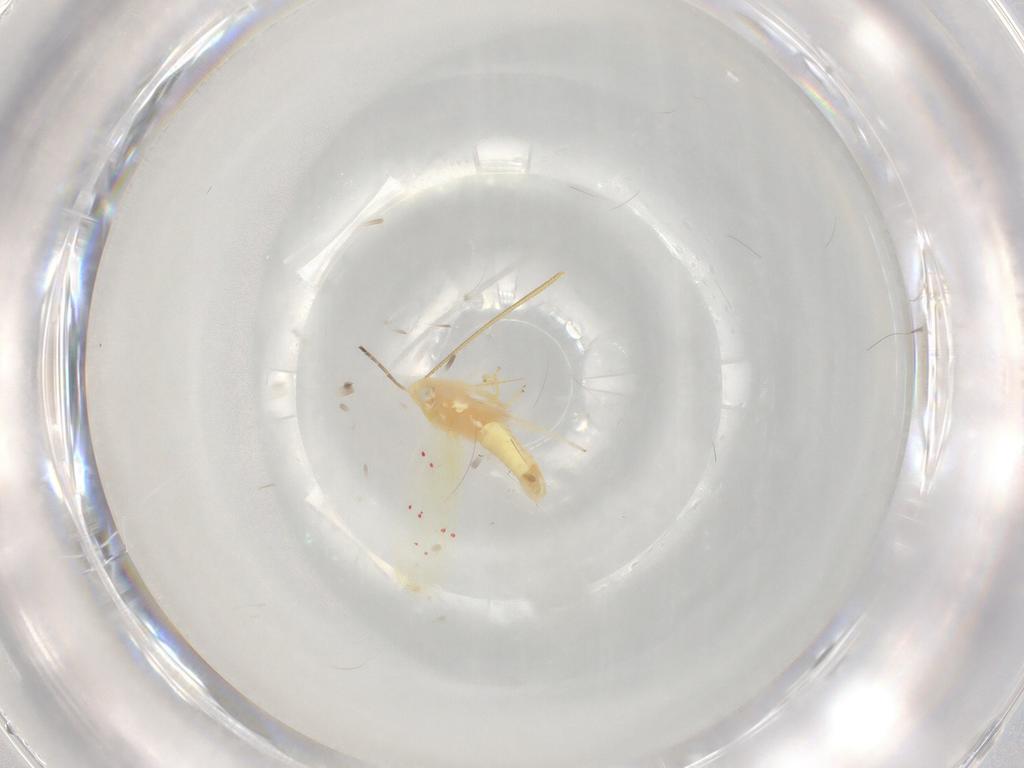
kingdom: Animalia
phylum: Arthropoda
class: Insecta
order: Hemiptera
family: Cicadellidae
